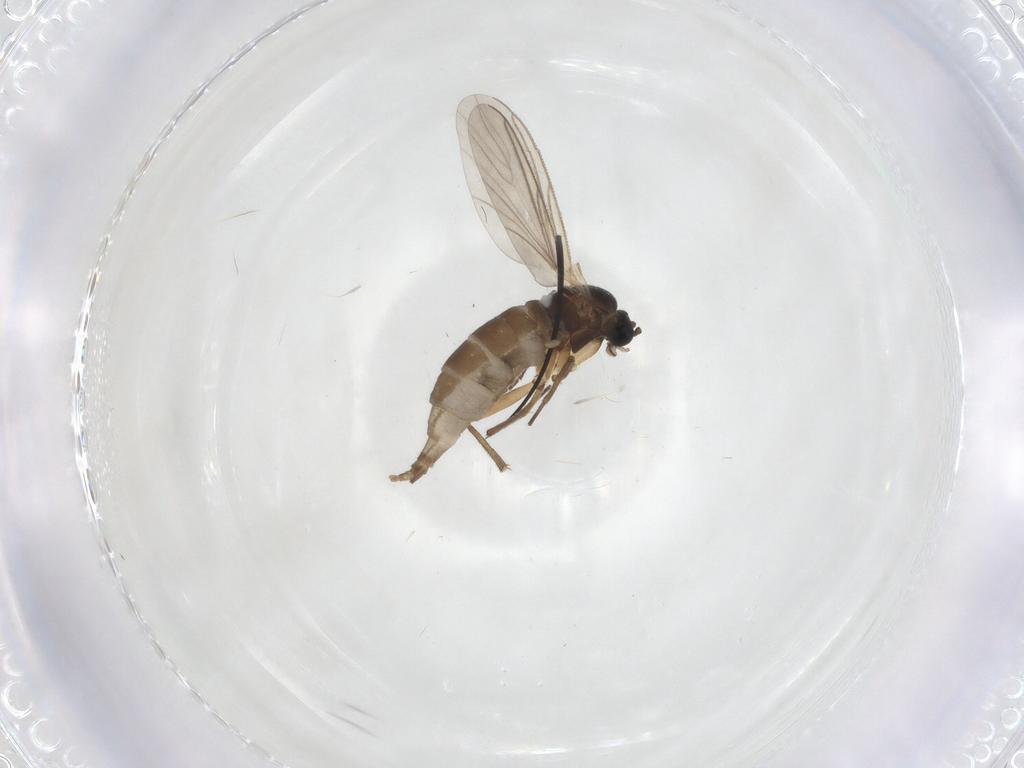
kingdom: Animalia
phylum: Arthropoda
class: Insecta
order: Diptera
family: Sciaridae
